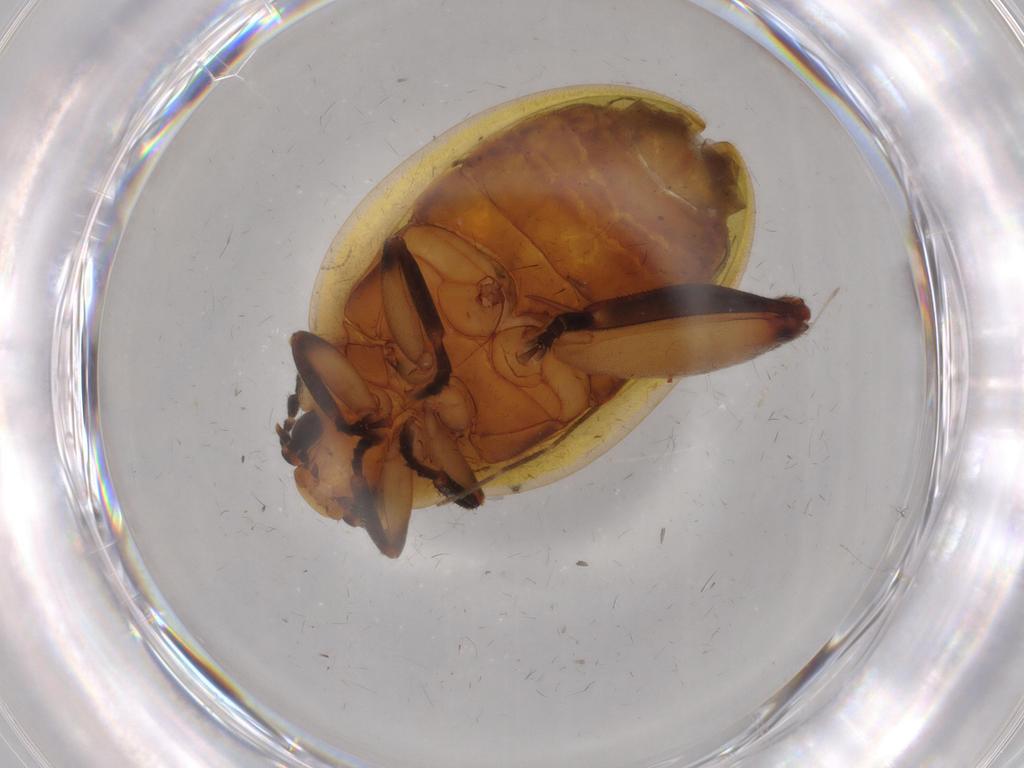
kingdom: Animalia
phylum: Arthropoda
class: Insecta
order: Coleoptera
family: Scirtidae
